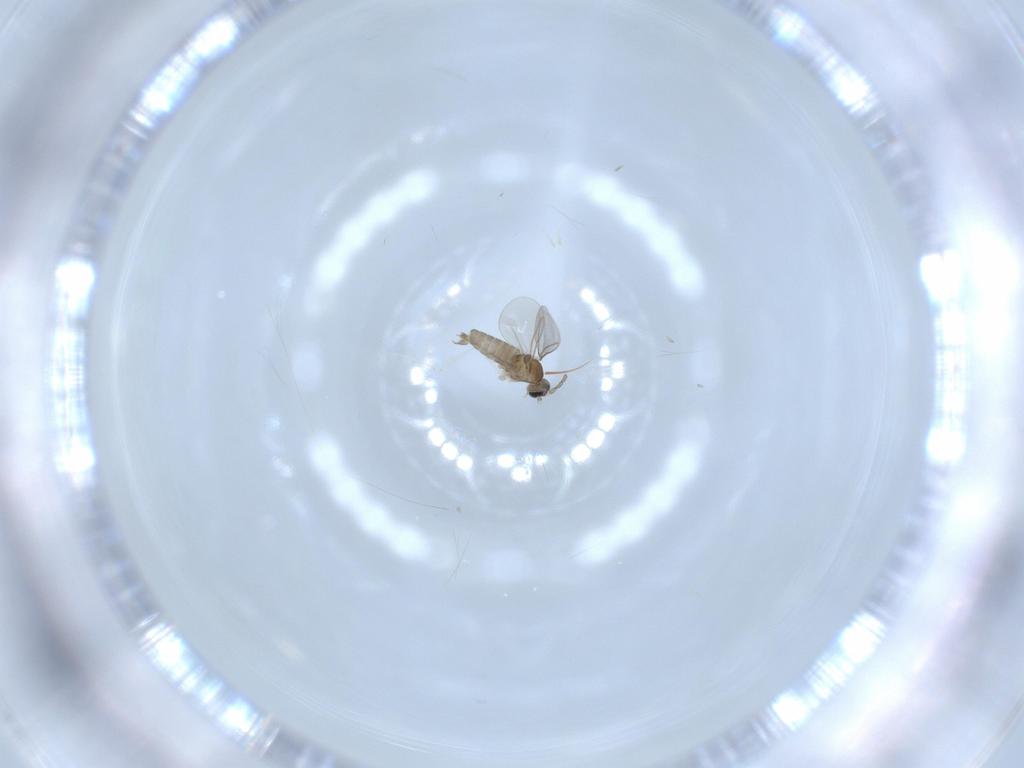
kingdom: Animalia
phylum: Arthropoda
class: Insecta
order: Diptera
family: Cecidomyiidae
